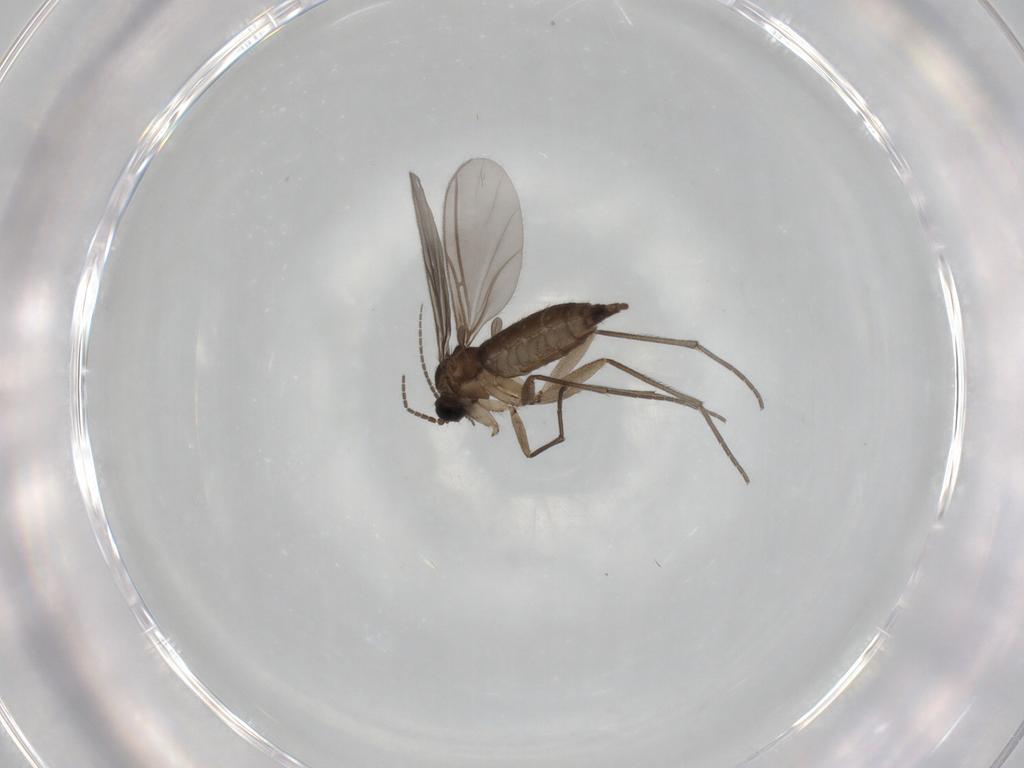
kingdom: Animalia
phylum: Arthropoda
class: Insecta
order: Diptera
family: Sciaridae
